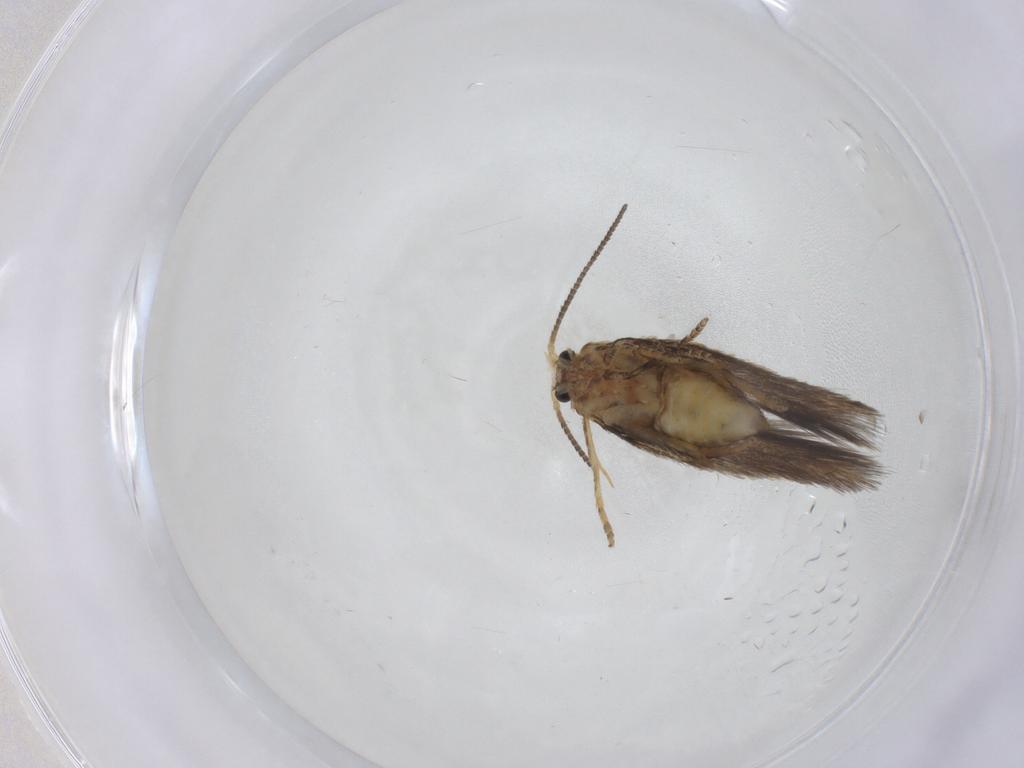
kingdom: Animalia
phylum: Arthropoda
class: Insecta
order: Lepidoptera
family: Nepticulidae
